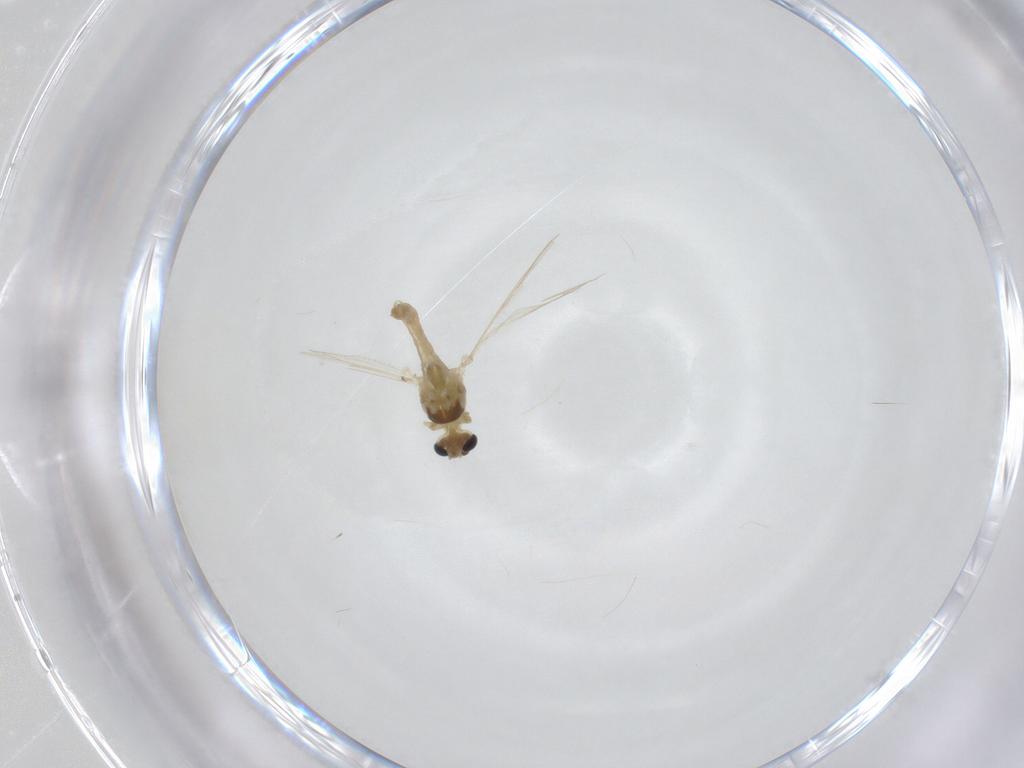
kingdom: Animalia
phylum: Arthropoda
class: Insecta
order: Diptera
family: Chironomidae
